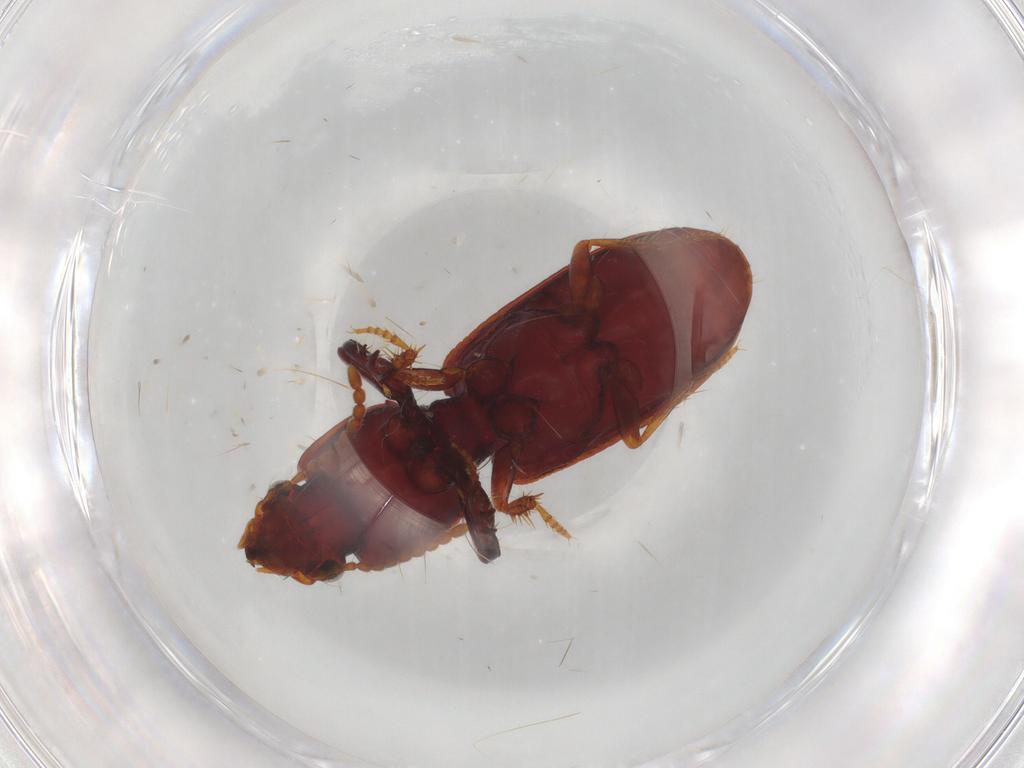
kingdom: Animalia
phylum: Arthropoda
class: Insecta
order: Coleoptera
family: Carabidae
